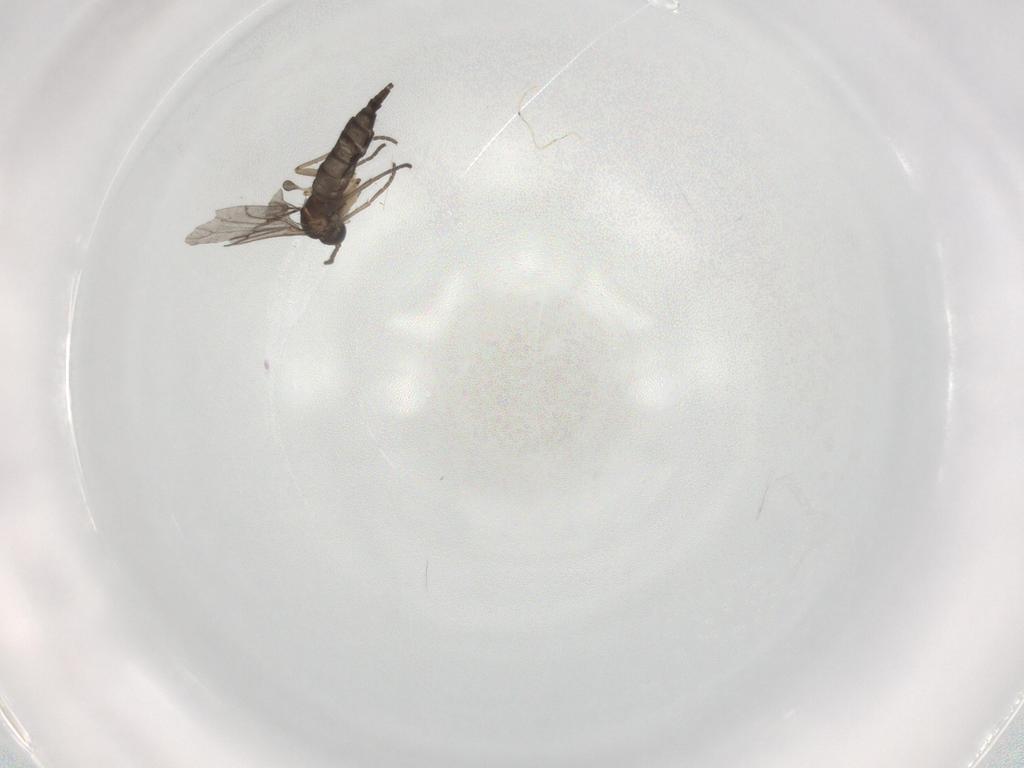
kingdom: Animalia
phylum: Arthropoda
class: Insecta
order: Diptera
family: Sciaridae
